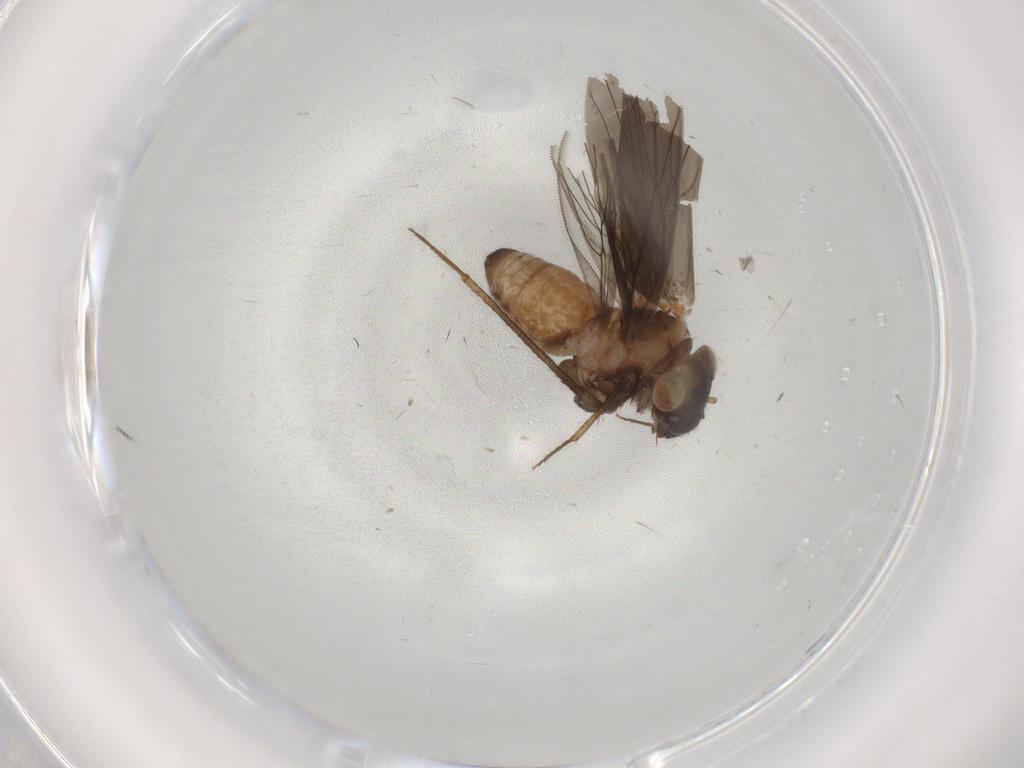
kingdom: Animalia
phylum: Arthropoda
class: Insecta
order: Psocodea
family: Lepidopsocidae
